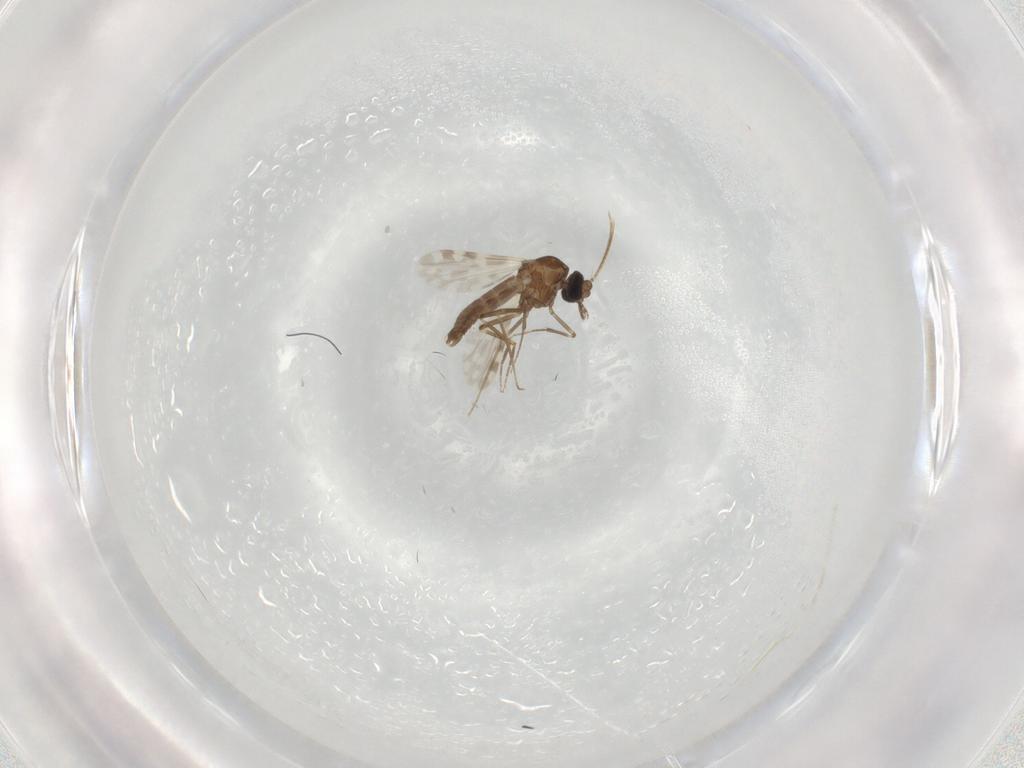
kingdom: Animalia
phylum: Arthropoda
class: Insecta
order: Diptera
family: Ceratopogonidae
